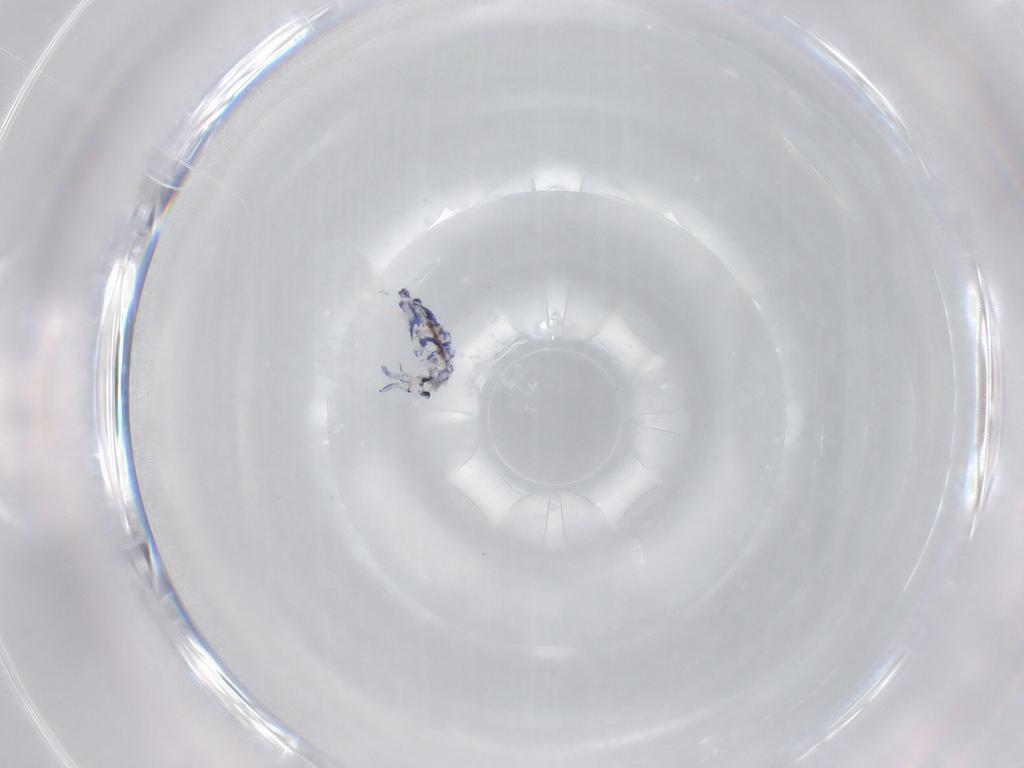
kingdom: Animalia
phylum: Arthropoda
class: Collembola
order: Entomobryomorpha
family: Entomobryidae
